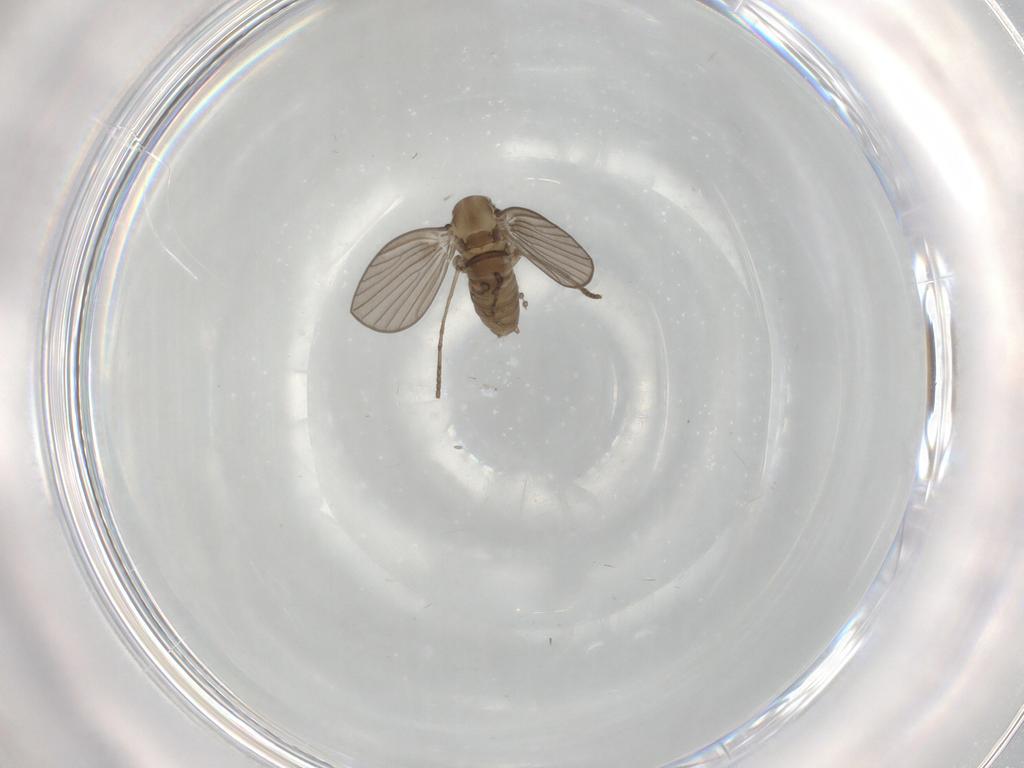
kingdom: Animalia
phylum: Arthropoda
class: Insecta
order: Diptera
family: Psychodidae
